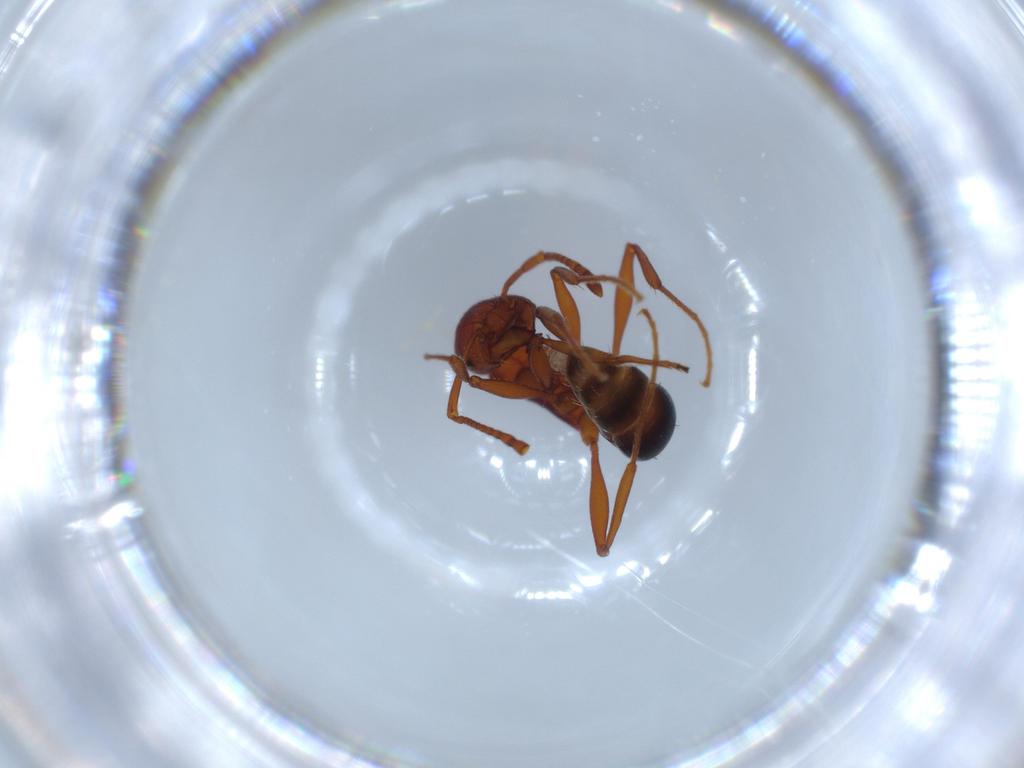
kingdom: Animalia
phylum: Arthropoda
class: Insecta
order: Hymenoptera
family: Formicidae
